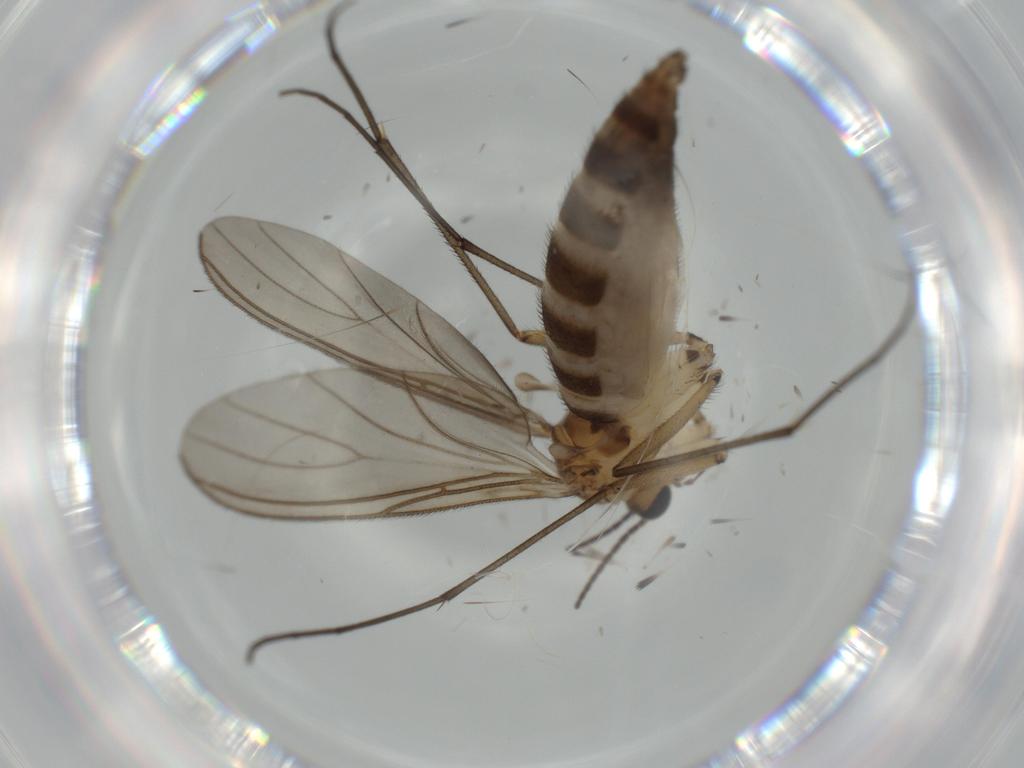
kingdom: Animalia
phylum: Arthropoda
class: Insecta
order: Diptera
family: Sciaridae
